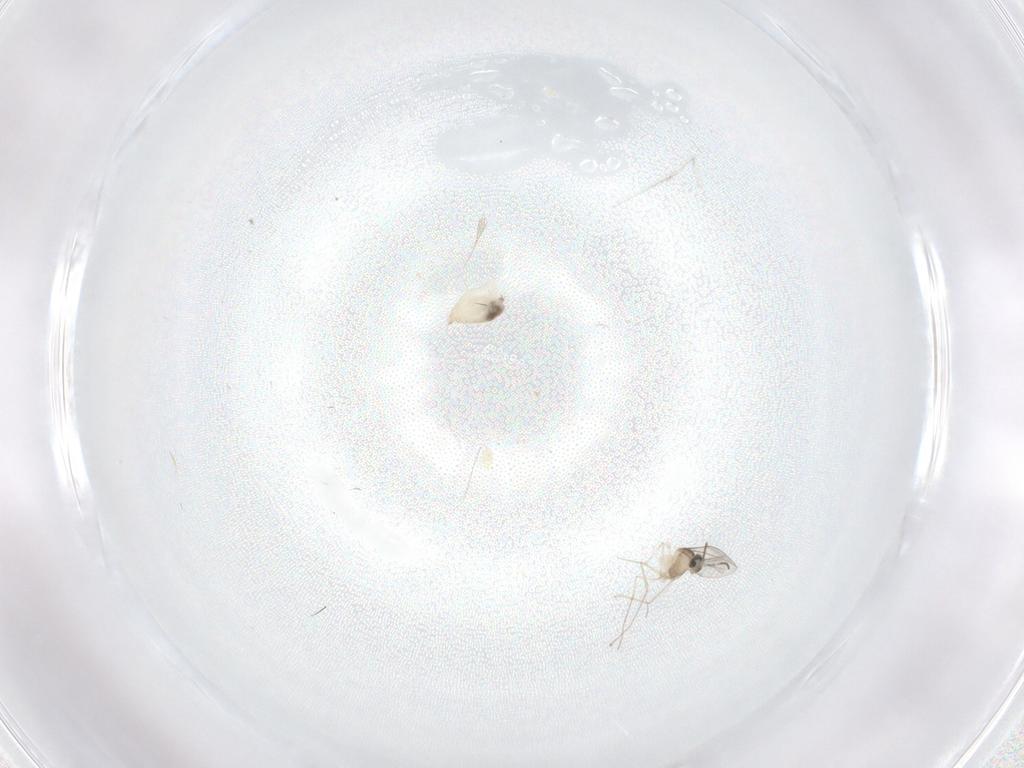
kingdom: Animalia
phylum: Arthropoda
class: Insecta
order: Diptera
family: Cecidomyiidae
